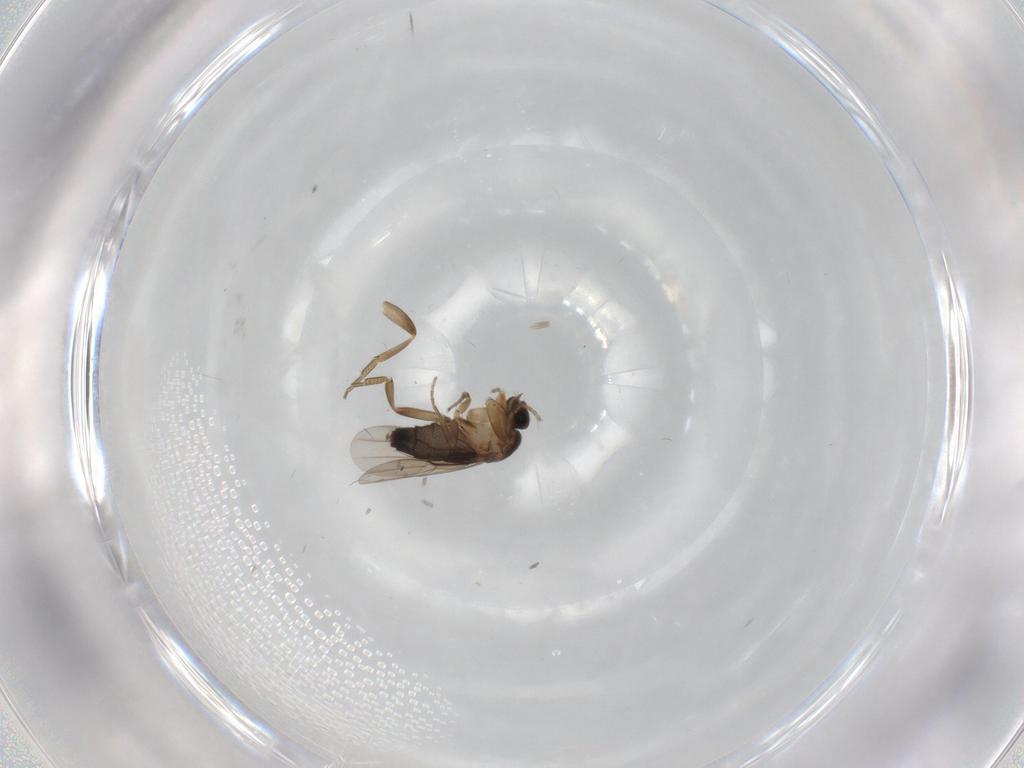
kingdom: Animalia
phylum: Arthropoda
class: Insecta
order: Diptera
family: Phoridae
